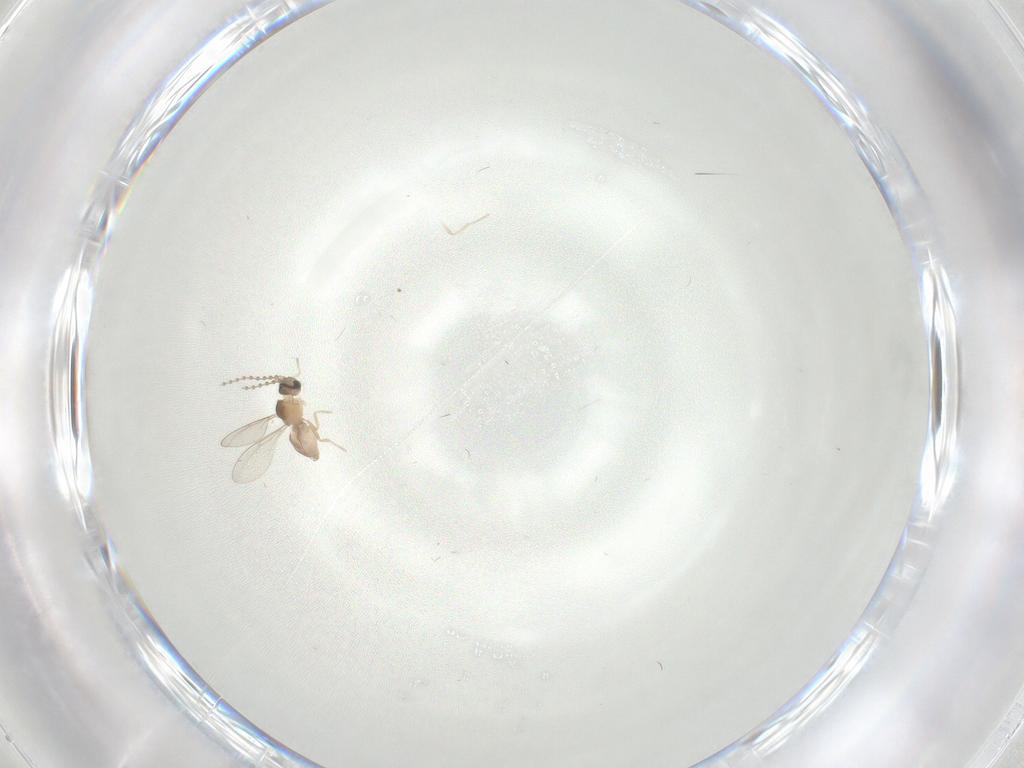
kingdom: Animalia
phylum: Arthropoda
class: Insecta
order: Diptera
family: Cecidomyiidae
